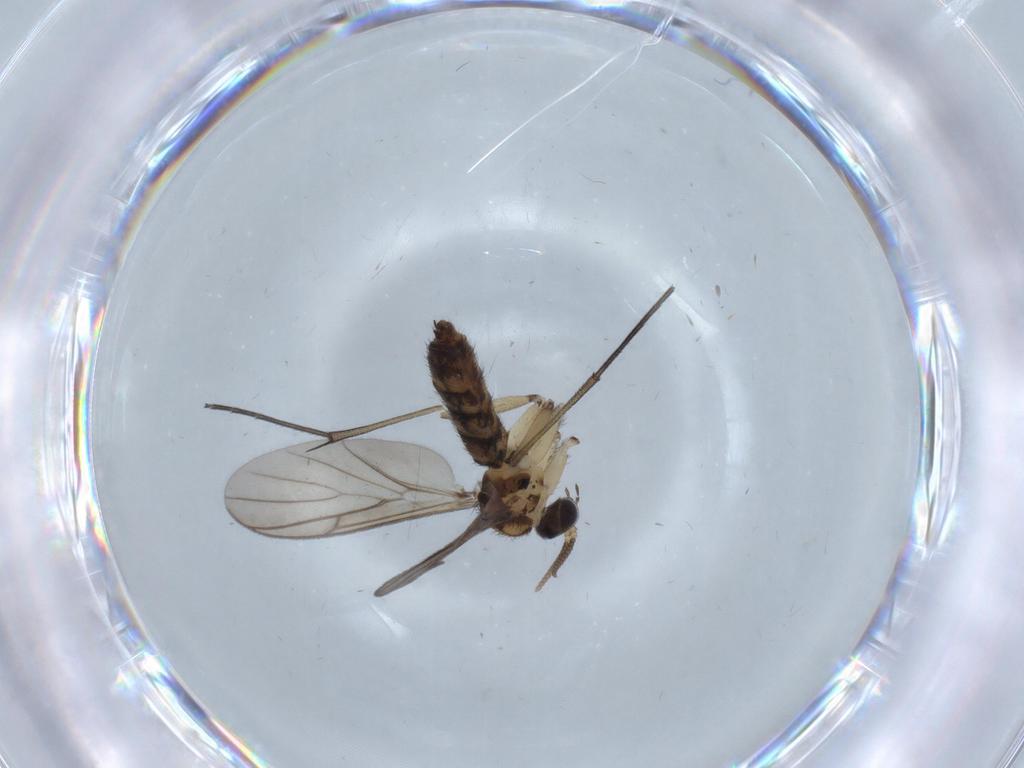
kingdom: Animalia
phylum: Arthropoda
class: Insecta
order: Diptera
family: Keroplatidae
